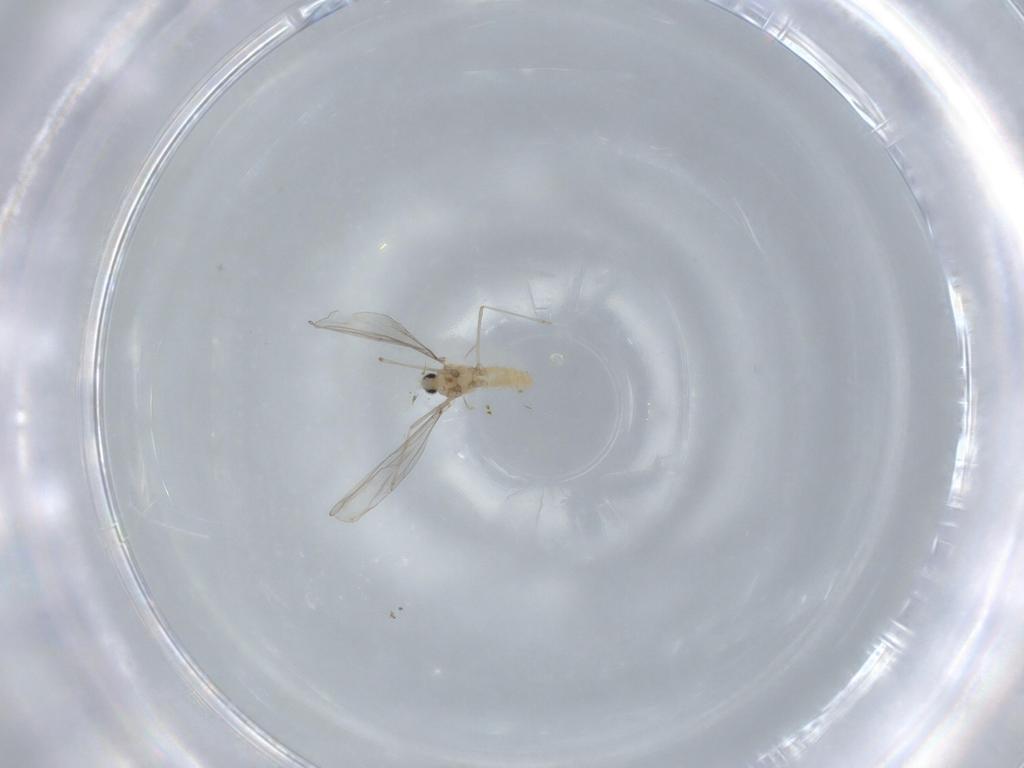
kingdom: Animalia
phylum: Arthropoda
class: Insecta
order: Diptera
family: Cecidomyiidae
